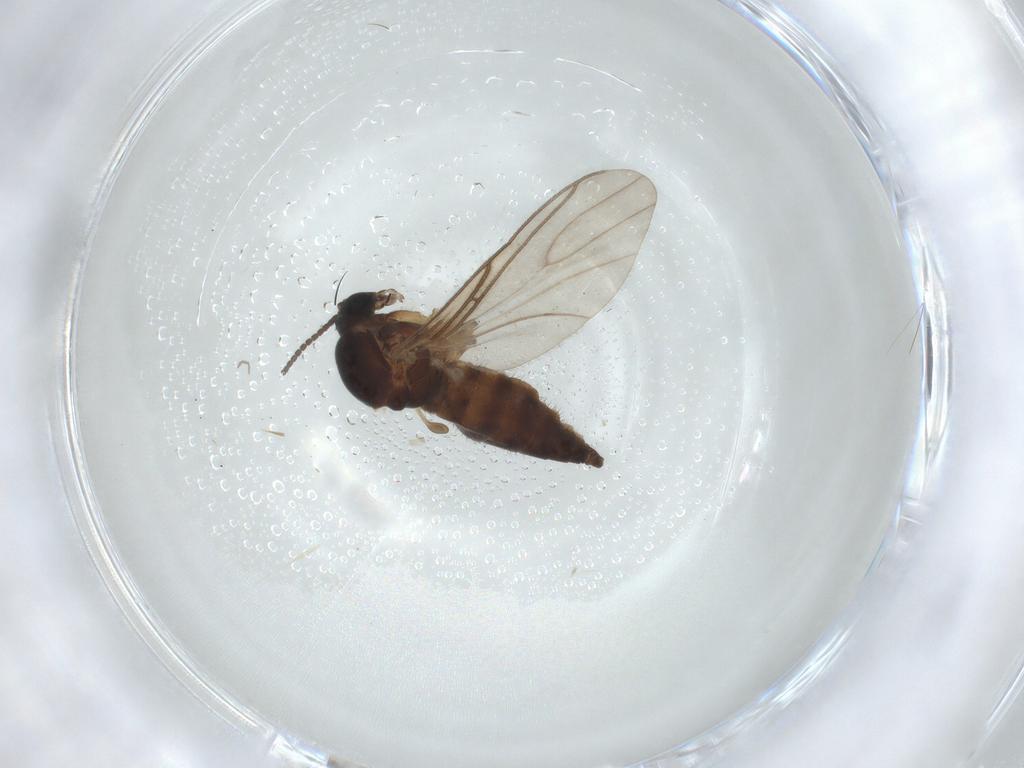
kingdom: Animalia
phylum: Arthropoda
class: Insecta
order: Diptera
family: Sciaridae
